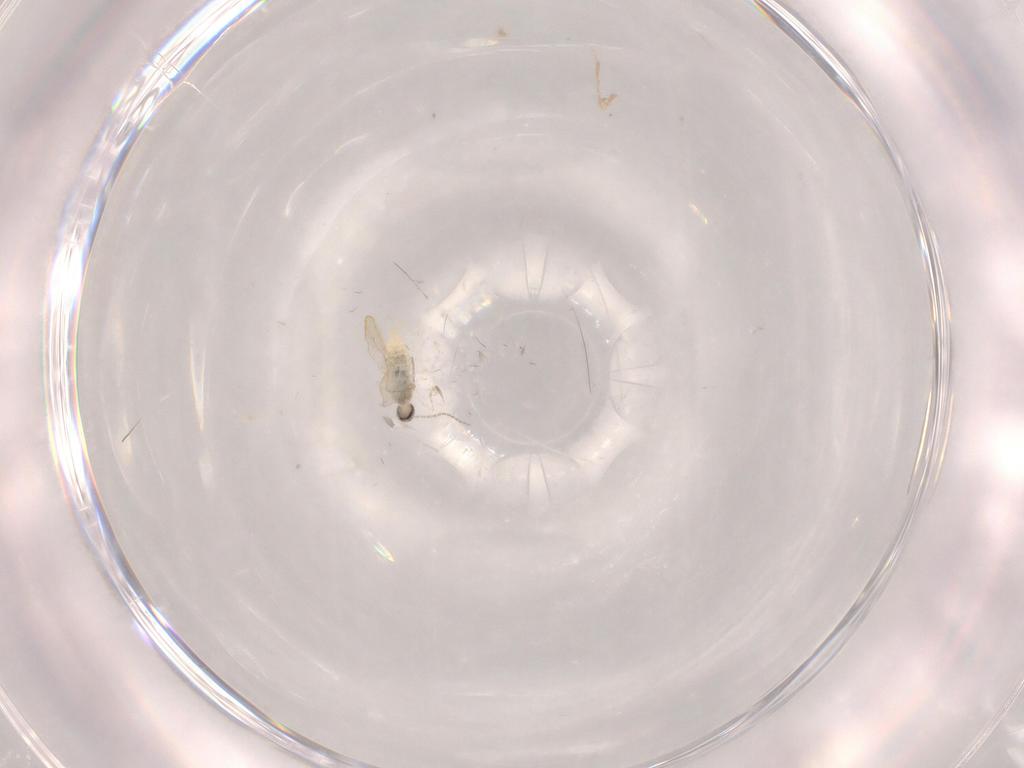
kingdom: Animalia
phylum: Arthropoda
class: Insecta
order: Diptera
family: Cecidomyiidae
